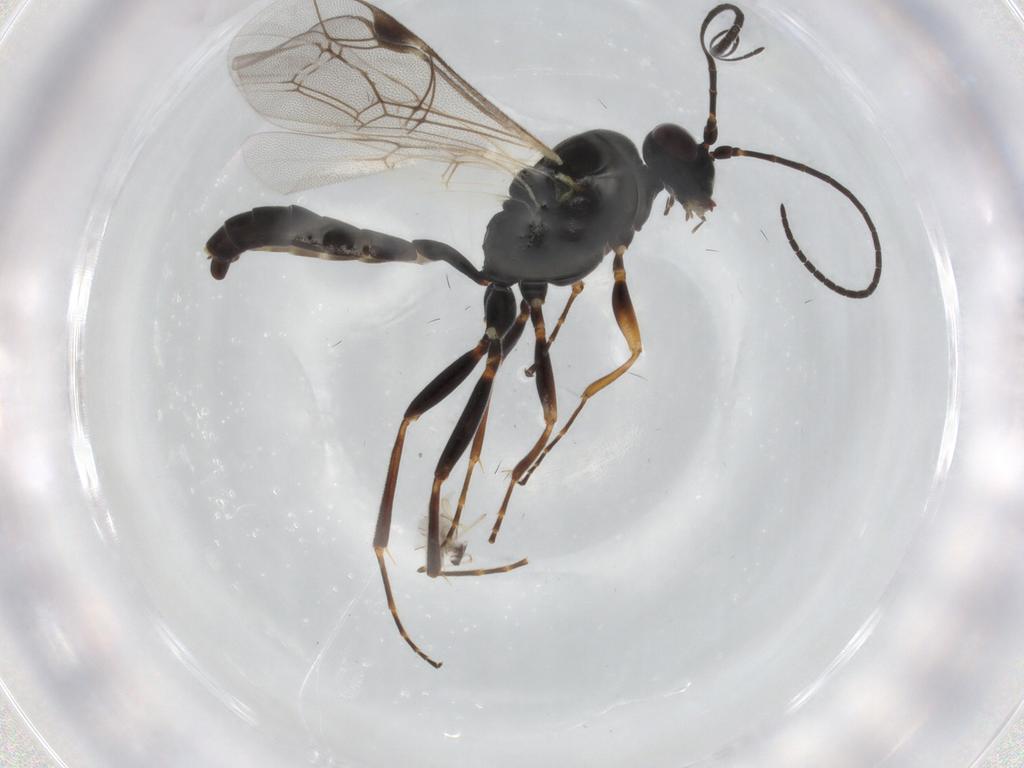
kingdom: Animalia
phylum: Arthropoda
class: Insecta
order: Hymenoptera
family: Ichneumonidae
